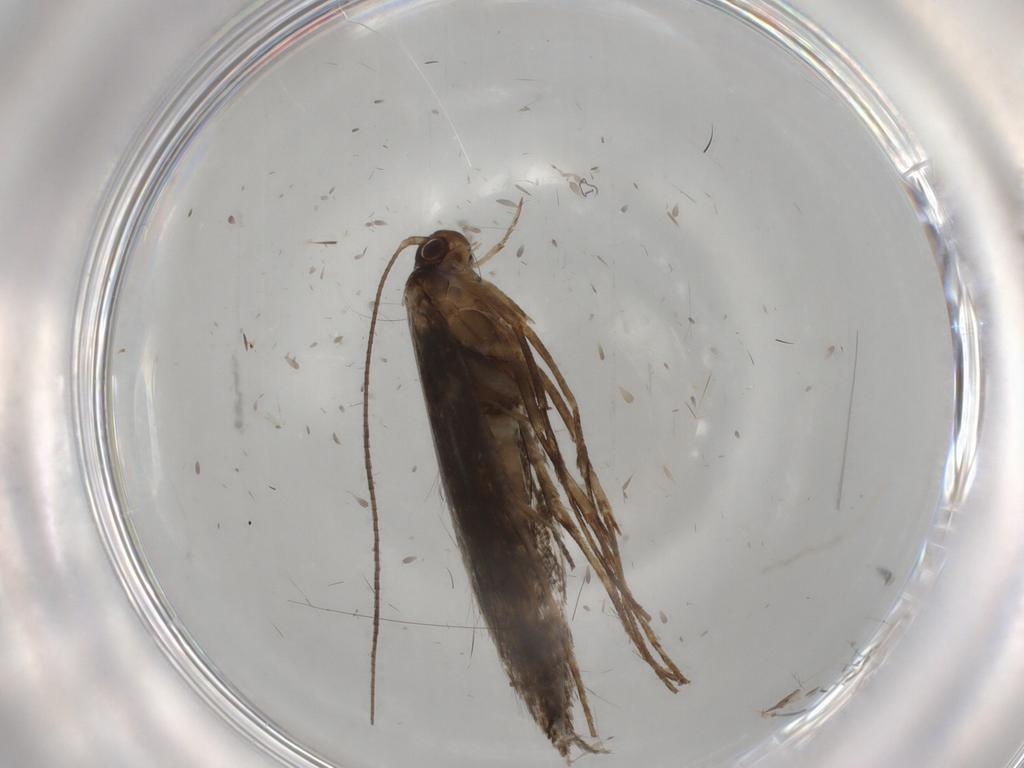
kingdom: Animalia
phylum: Arthropoda
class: Insecta
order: Lepidoptera
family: Gracillariidae
